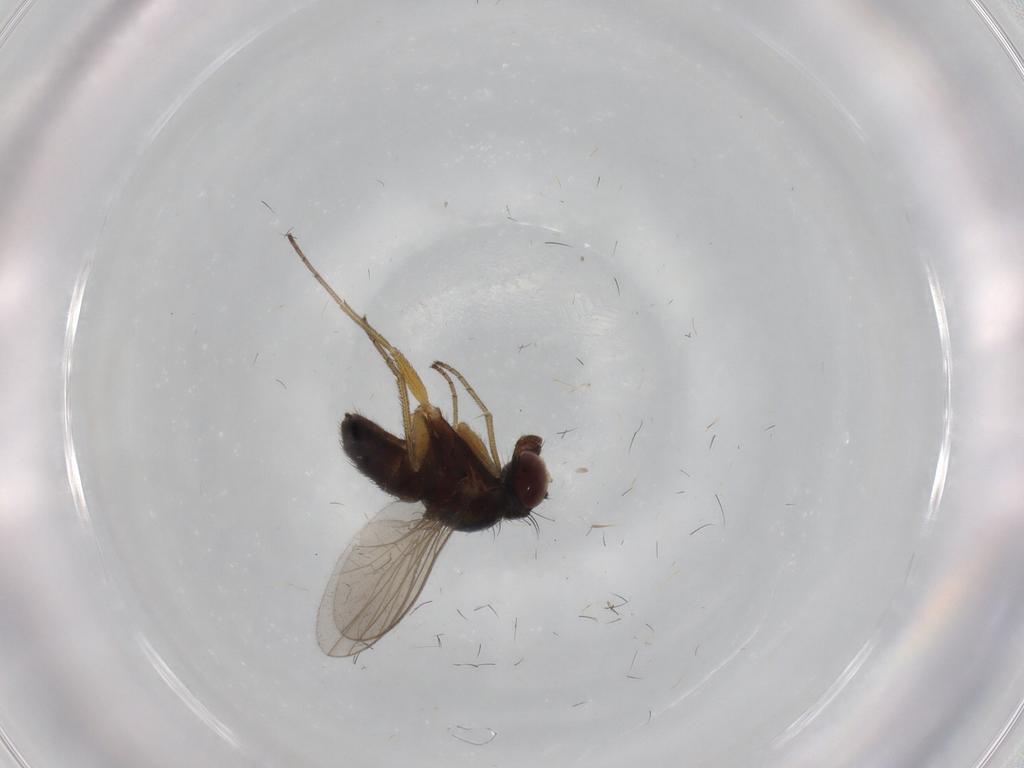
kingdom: Animalia
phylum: Arthropoda
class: Insecta
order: Diptera
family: Dolichopodidae
